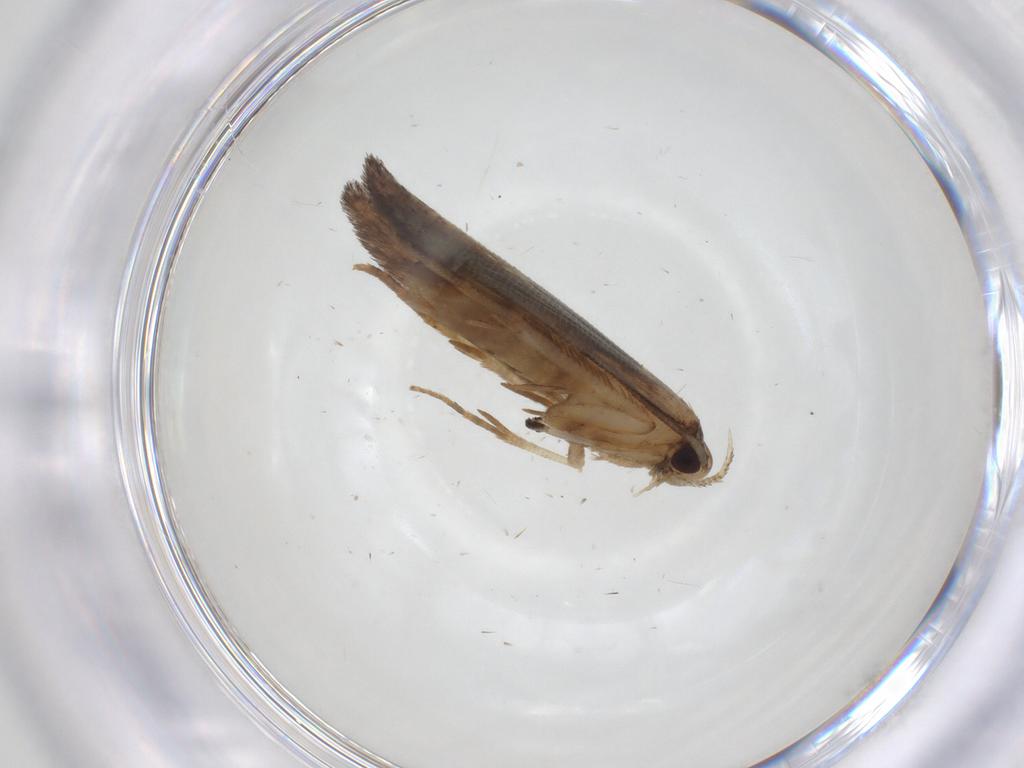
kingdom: Animalia
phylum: Arthropoda
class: Insecta
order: Lepidoptera
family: Cosmopterigidae
